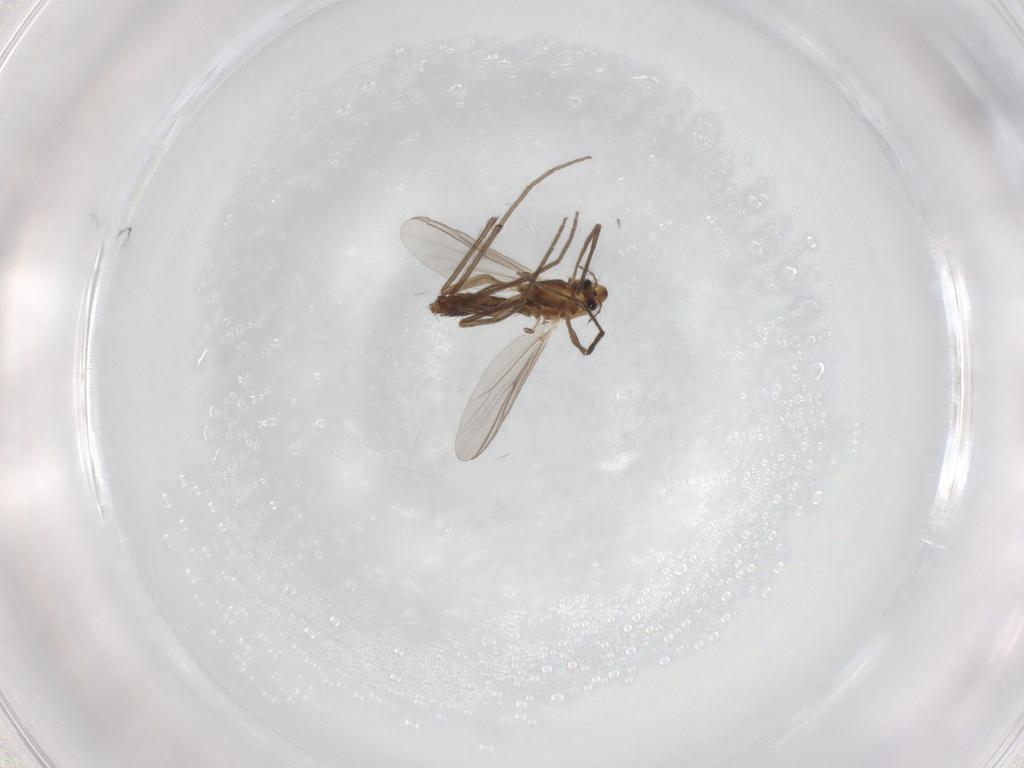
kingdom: Animalia
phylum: Arthropoda
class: Insecta
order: Diptera
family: Chironomidae
